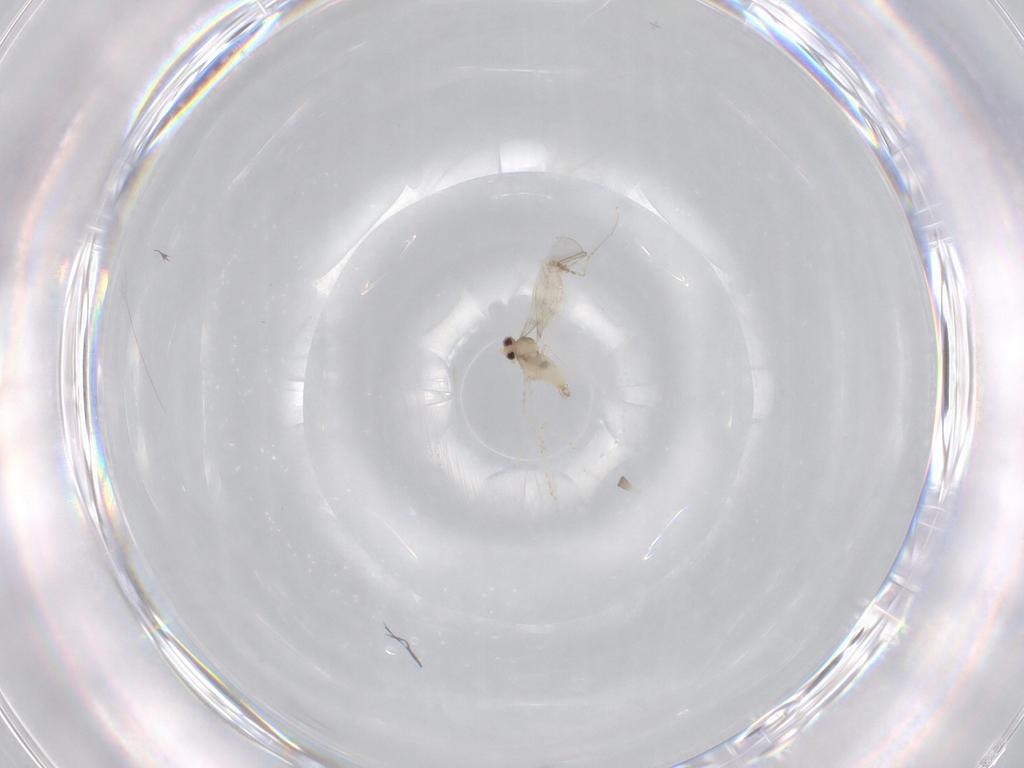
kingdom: Animalia
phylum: Arthropoda
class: Insecta
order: Diptera
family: Cecidomyiidae
